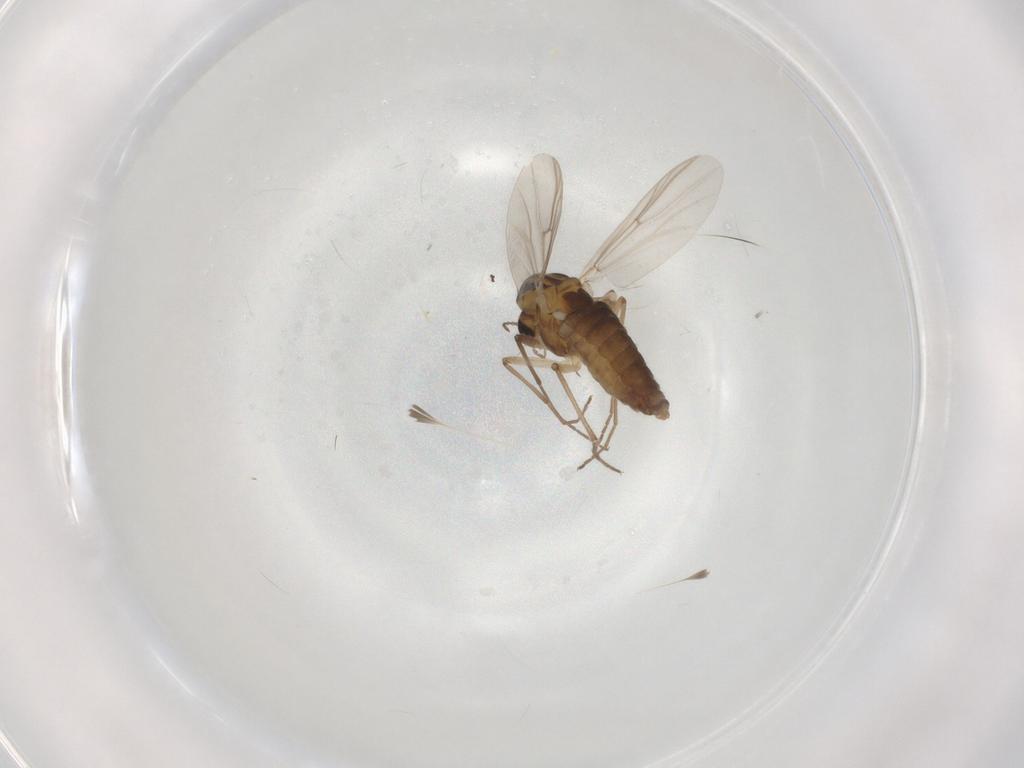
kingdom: Animalia
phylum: Arthropoda
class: Insecta
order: Diptera
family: Chironomidae
